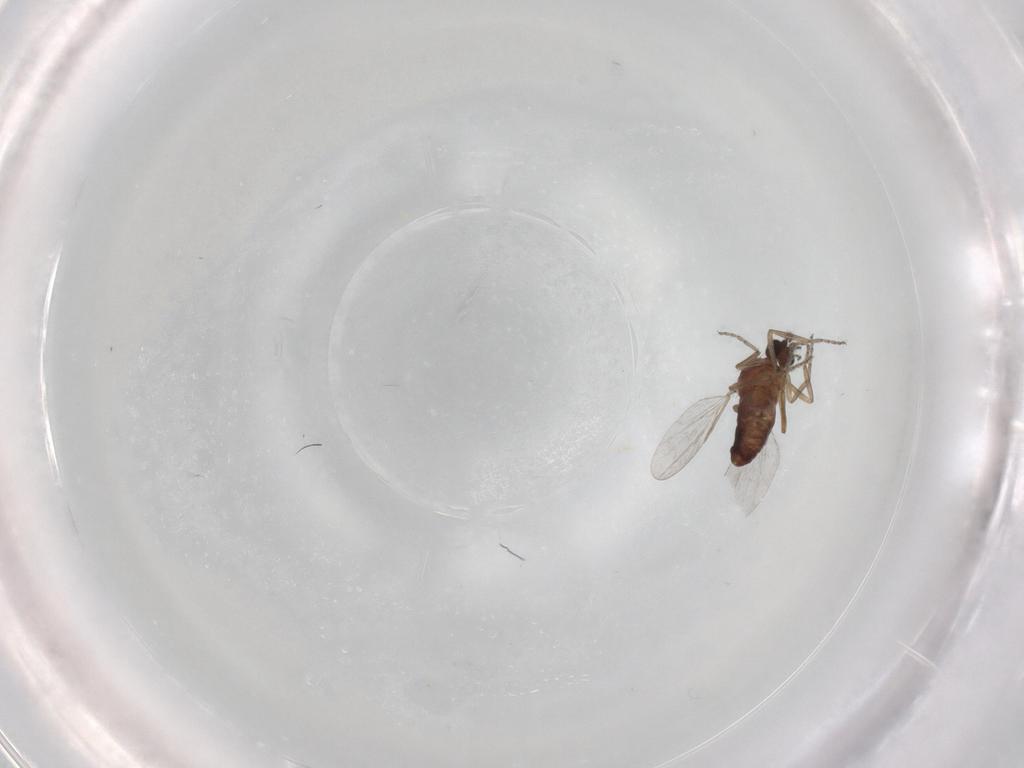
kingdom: Animalia
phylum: Arthropoda
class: Insecta
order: Diptera
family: Ceratopogonidae
